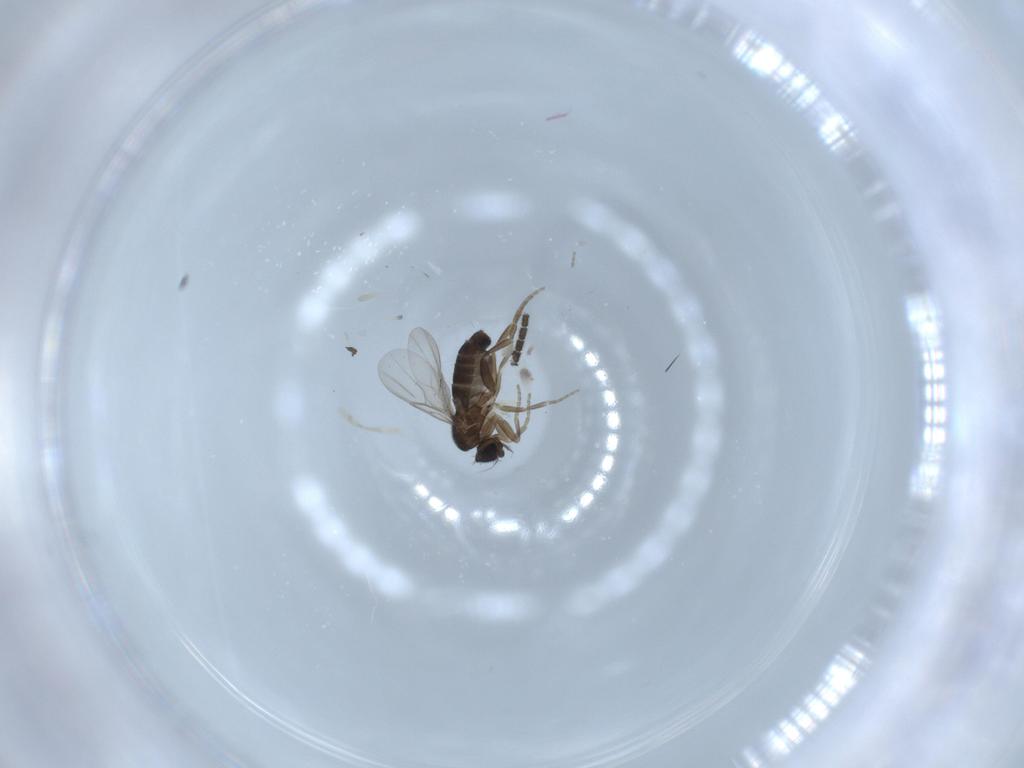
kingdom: Animalia
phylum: Arthropoda
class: Insecta
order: Diptera
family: Phoridae
